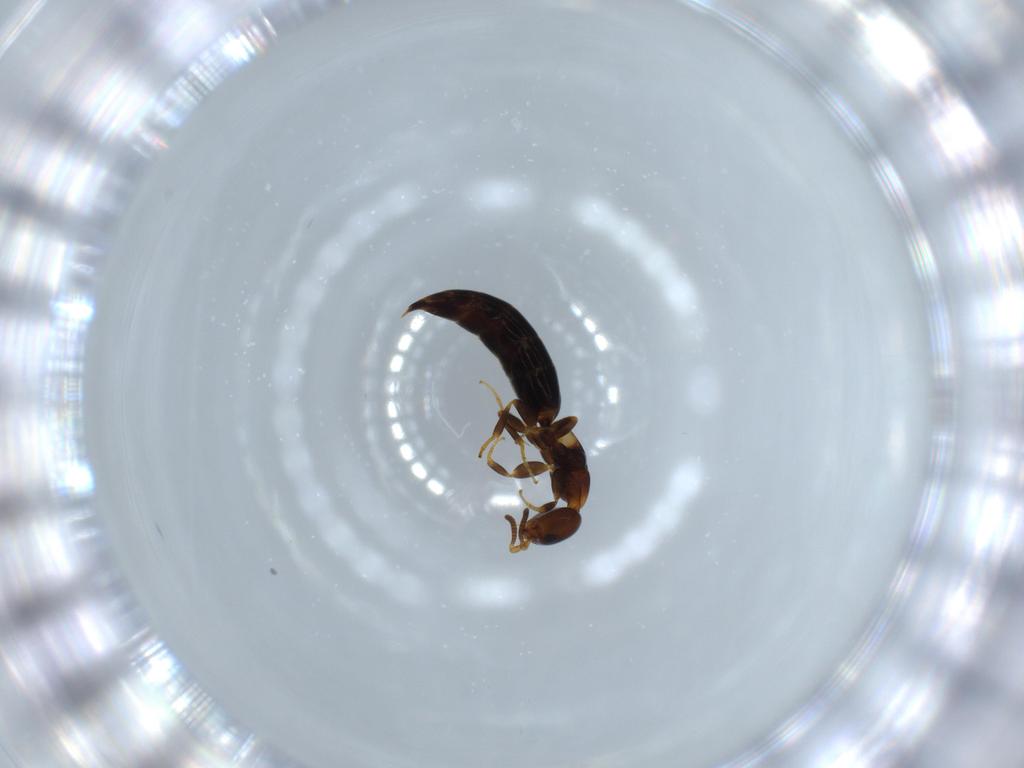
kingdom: Animalia
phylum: Arthropoda
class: Insecta
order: Hymenoptera
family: Bethylidae
